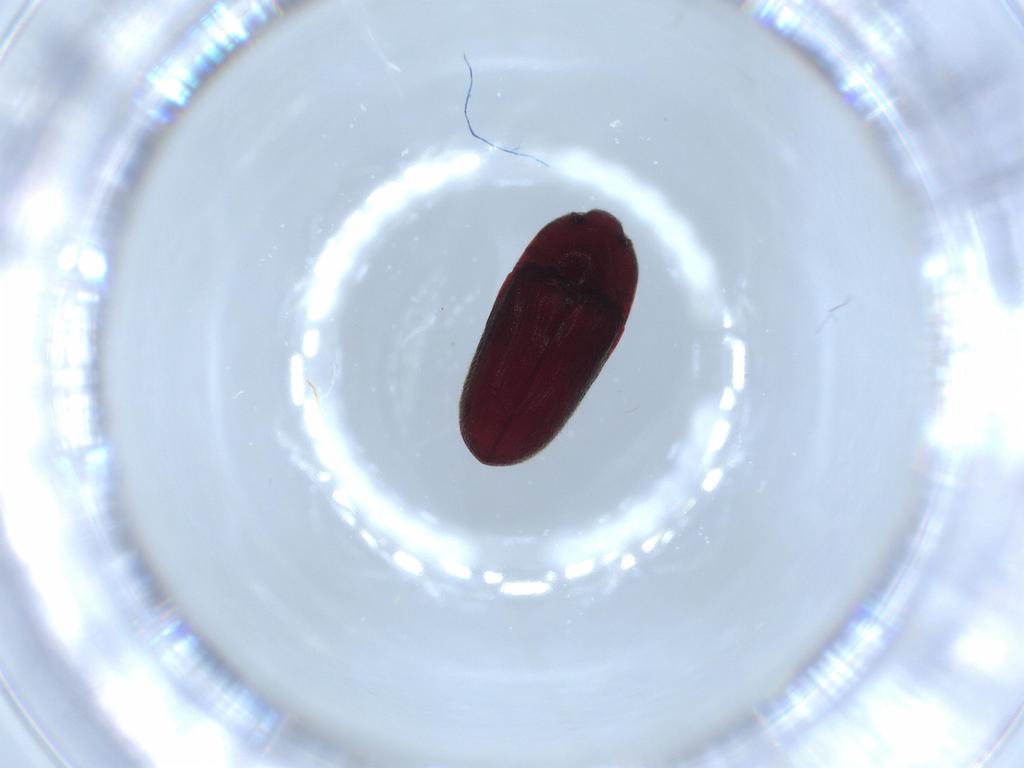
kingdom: Animalia
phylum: Arthropoda
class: Insecta
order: Coleoptera
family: Throscidae
